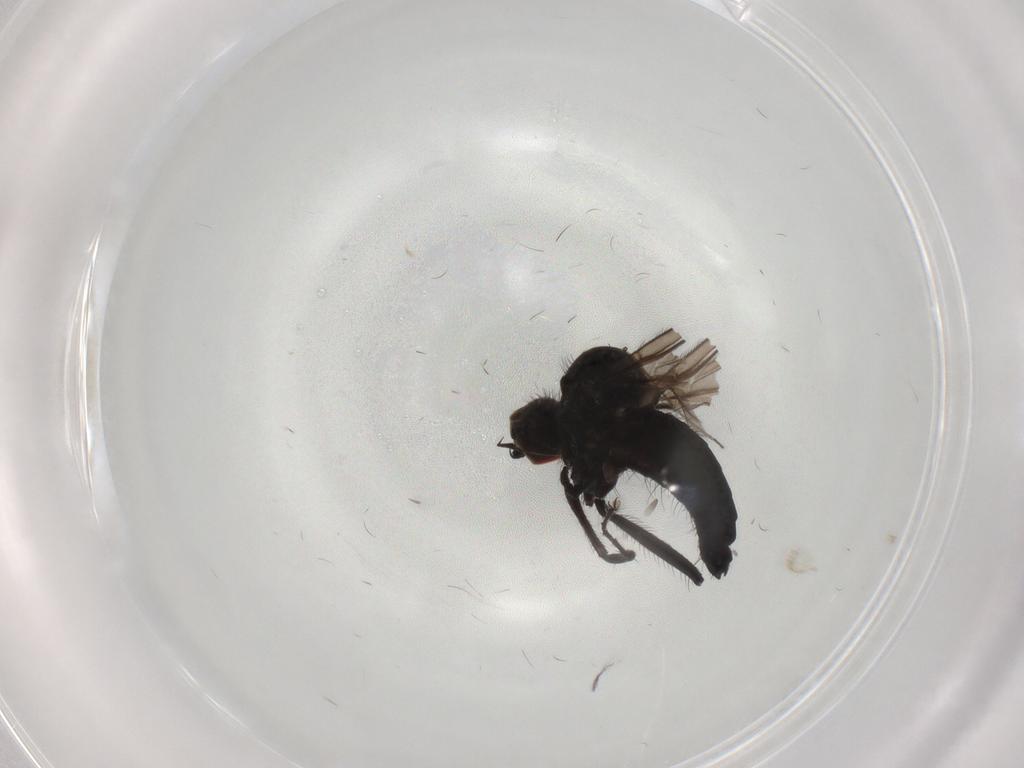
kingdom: Animalia
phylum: Arthropoda
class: Insecta
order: Diptera
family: Hybotidae
